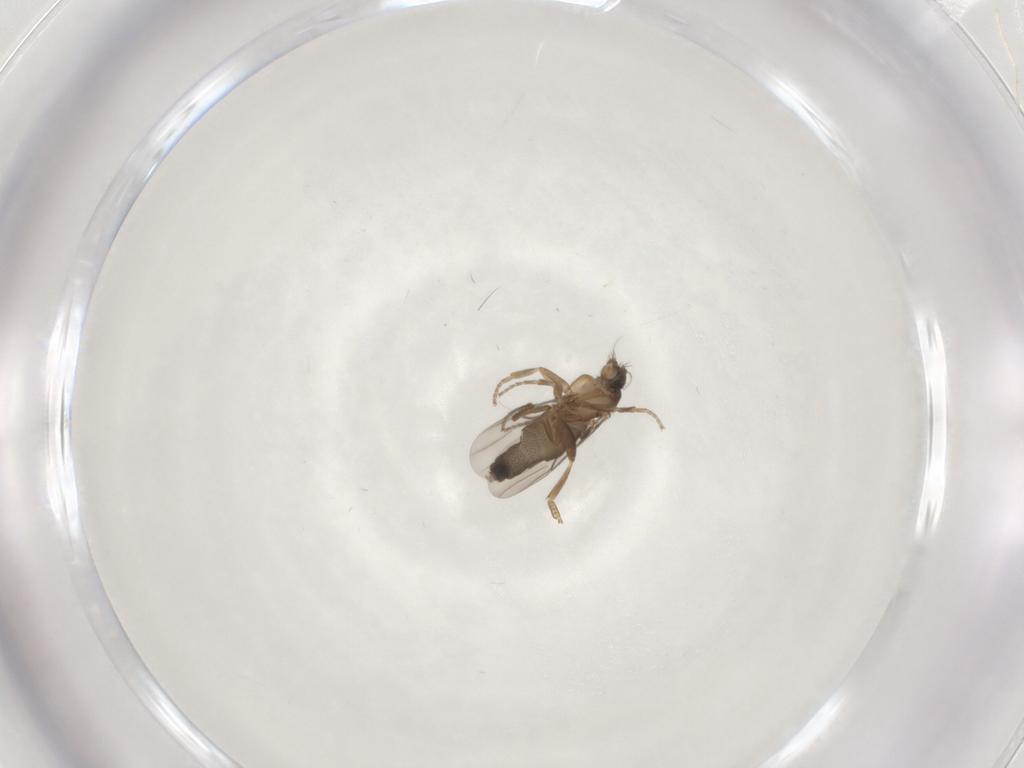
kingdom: Animalia
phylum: Arthropoda
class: Insecta
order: Diptera
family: Phoridae
